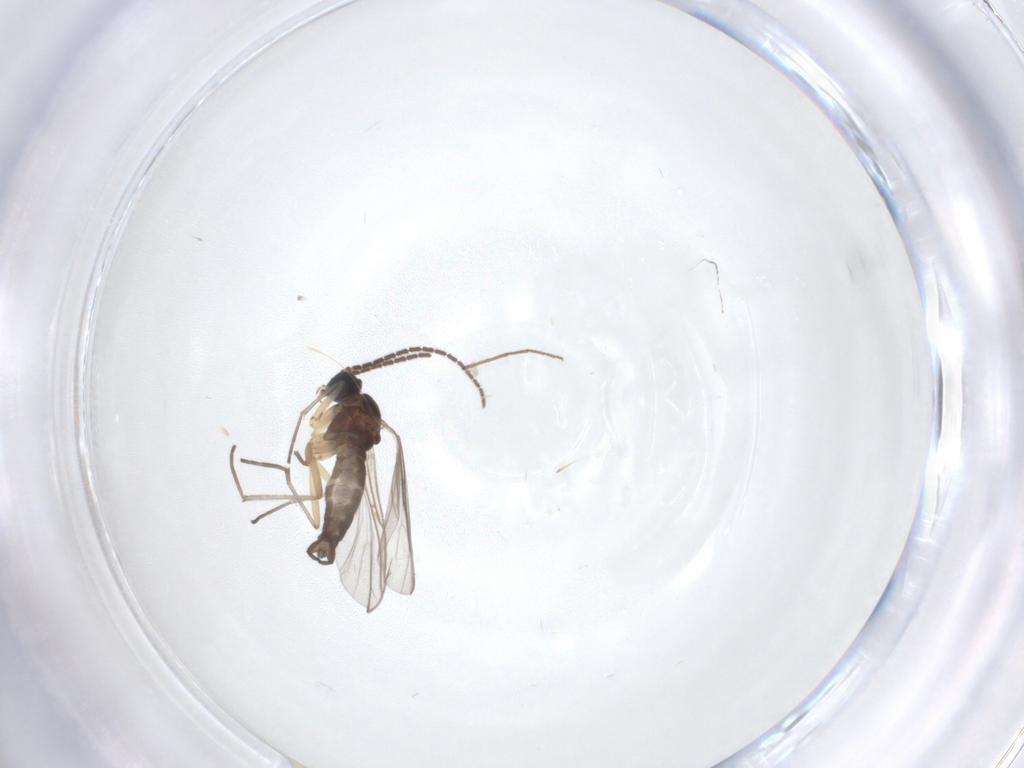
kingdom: Animalia
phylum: Arthropoda
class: Insecta
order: Diptera
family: Sciaridae
